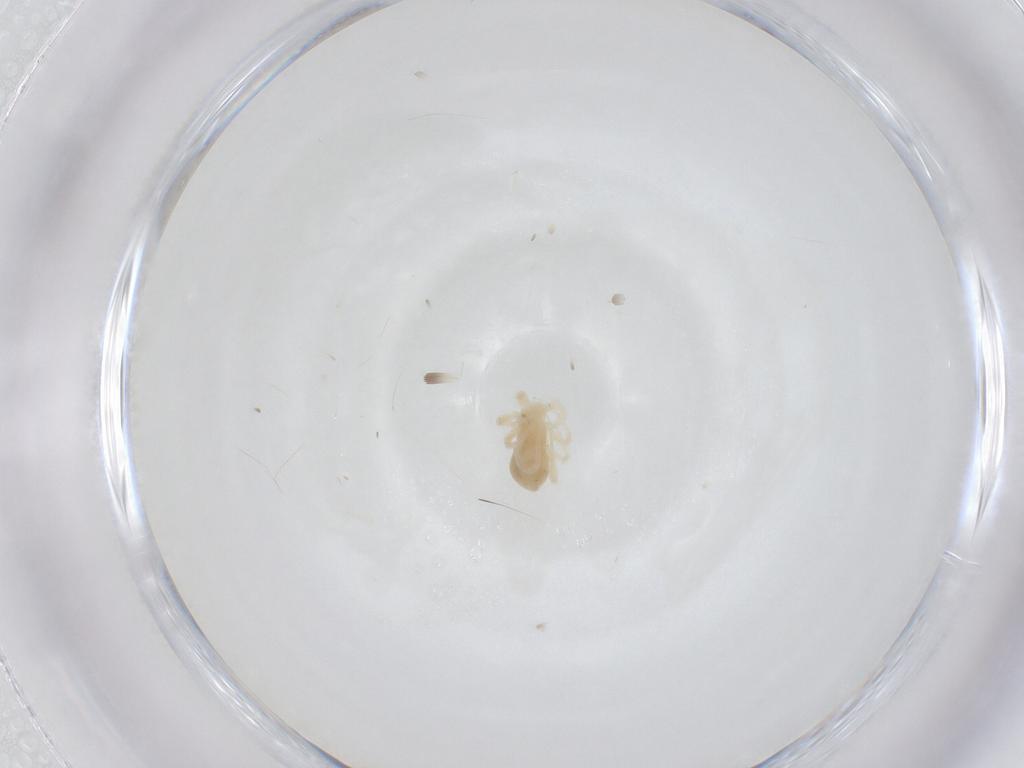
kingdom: Animalia
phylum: Arthropoda
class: Arachnida
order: Trombidiformes
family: Anystidae
